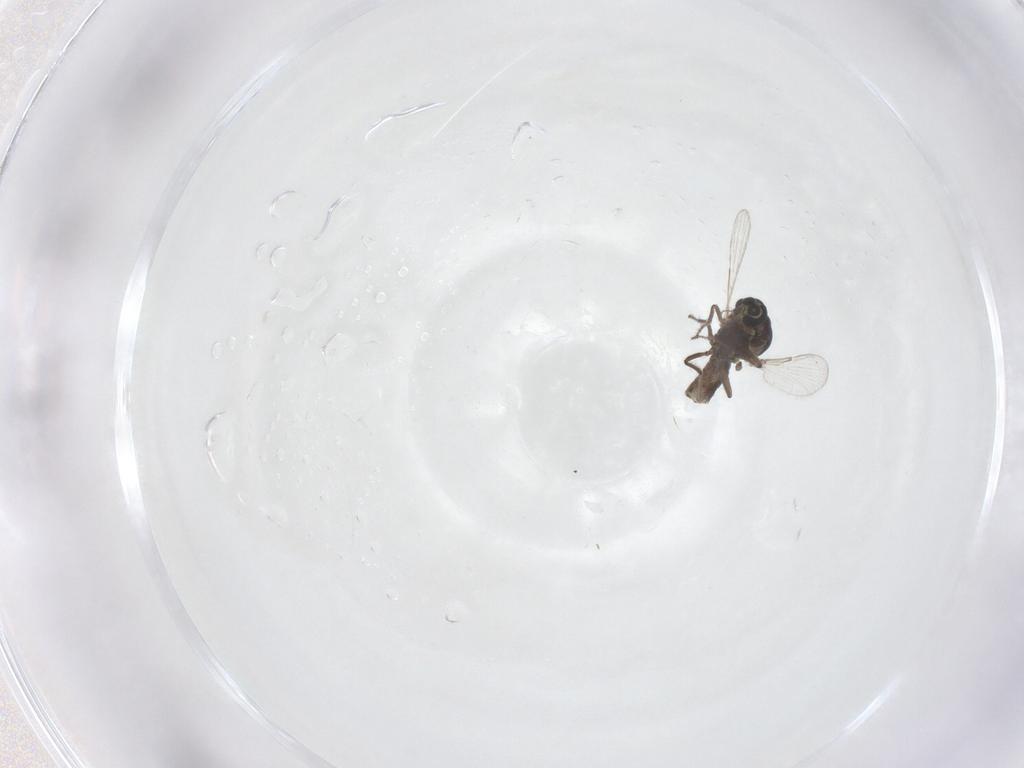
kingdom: Animalia
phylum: Arthropoda
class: Insecta
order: Diptera
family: Ceratopogonidae
